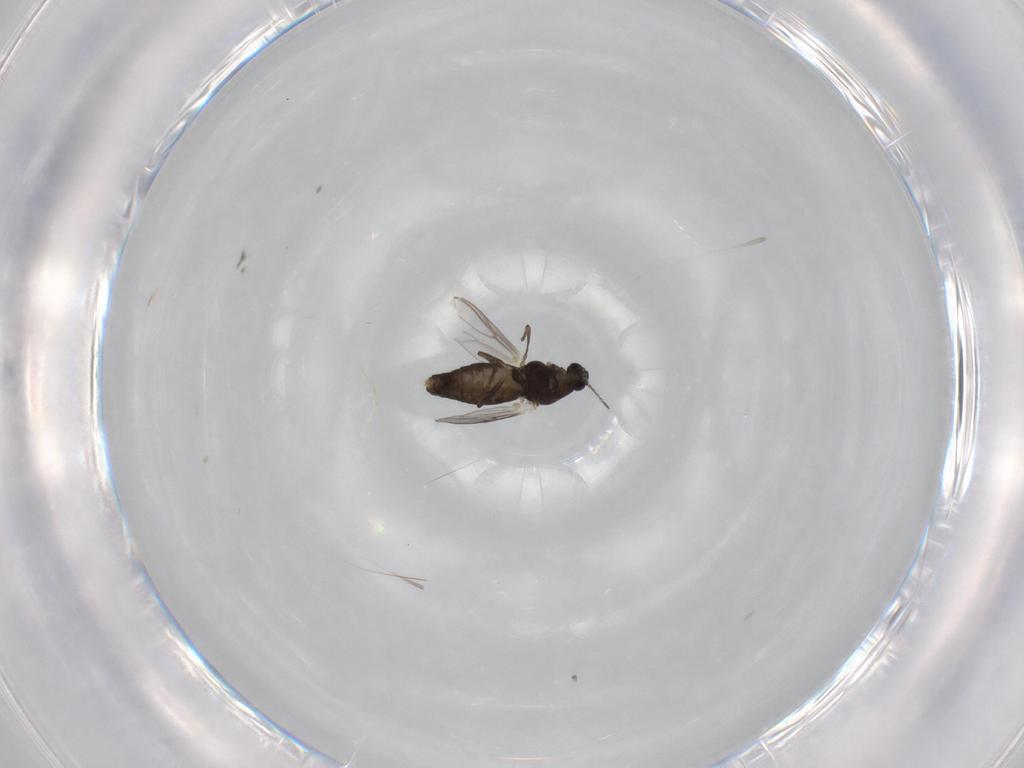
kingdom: Animalia
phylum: Arthropoda
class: Insecta
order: Diptera
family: Chironomidae
